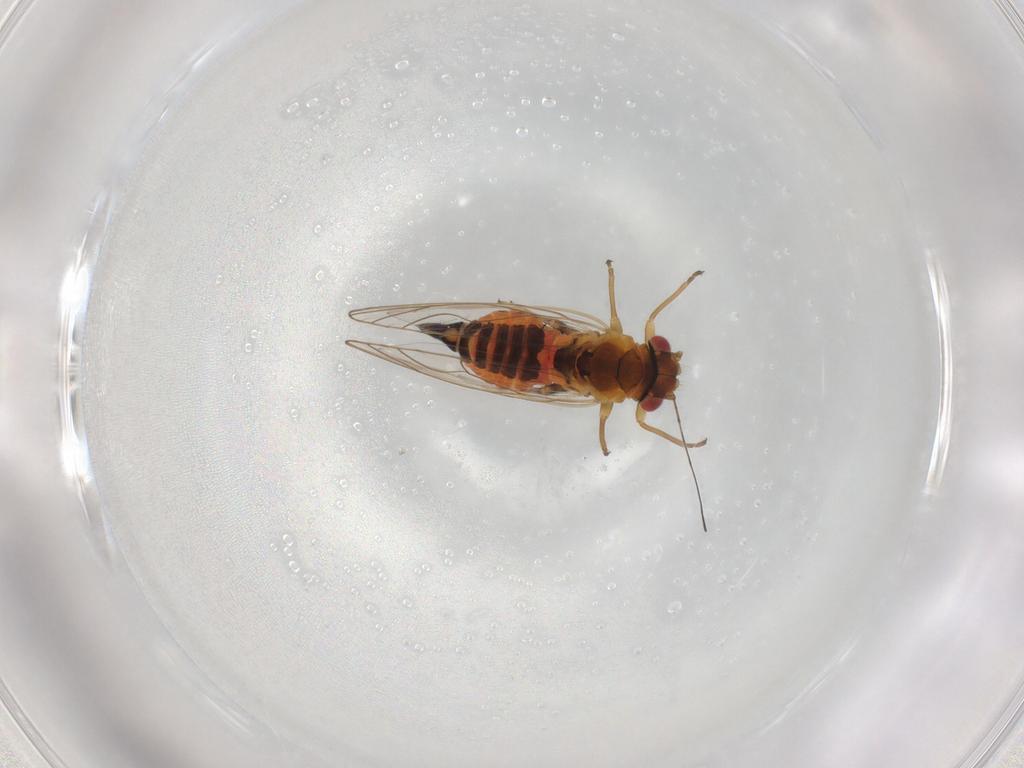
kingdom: Animalia
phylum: Arthropoda
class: Insecta
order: Hemiptera
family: Psyllidae
